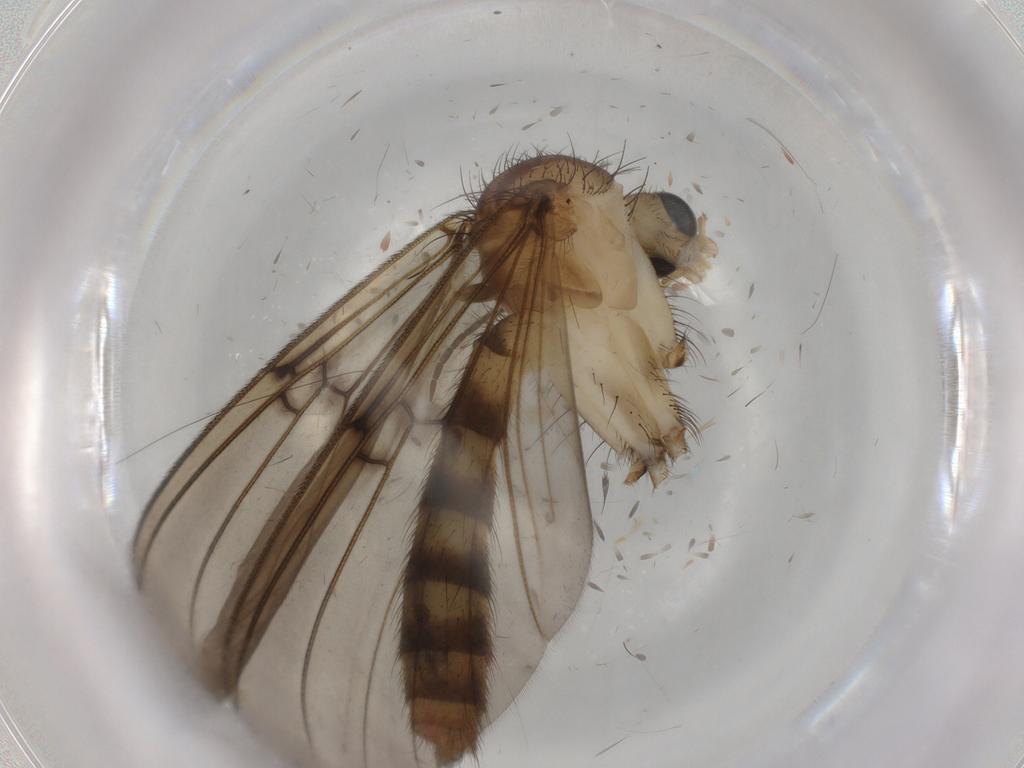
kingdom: Animalia
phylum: Arthropoda
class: Insecta
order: Diptera
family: Mycetophilidae
